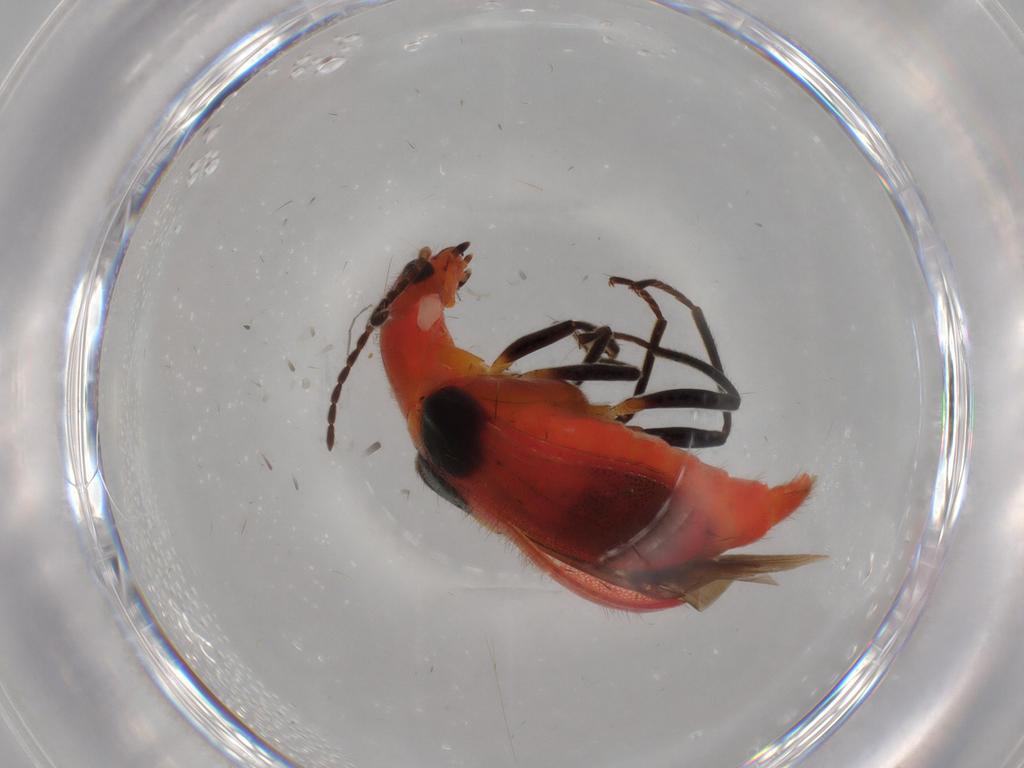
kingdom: Animalia
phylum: Arthropoda
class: Insecta
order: Coleoptera
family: Melyridae
